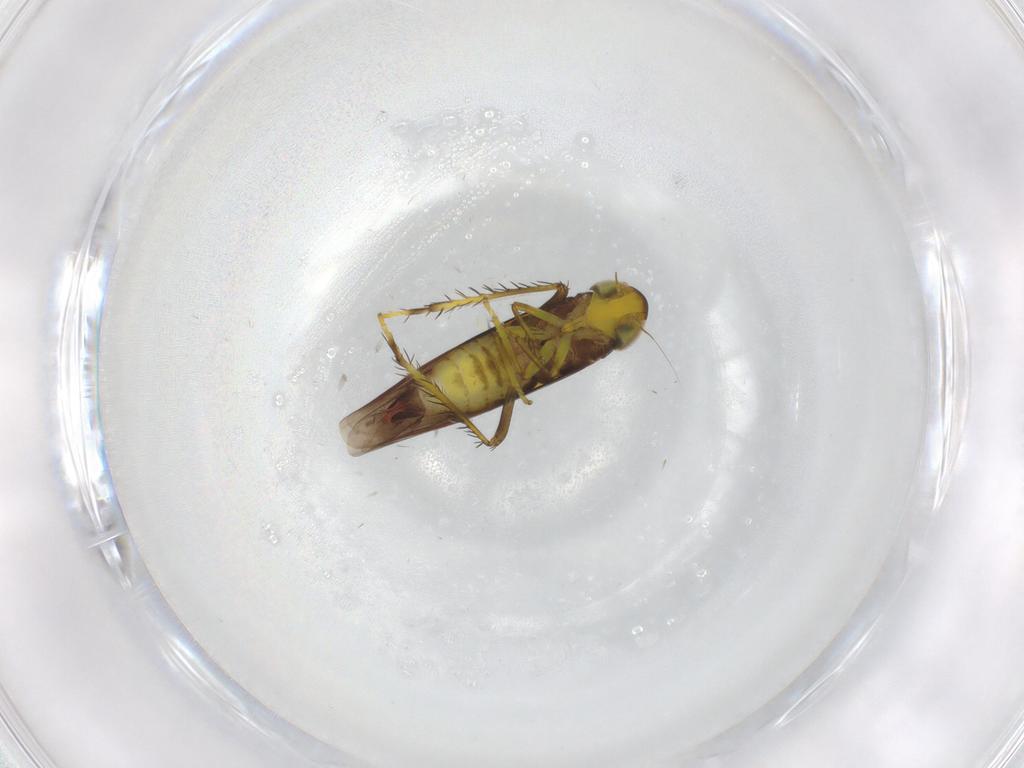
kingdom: Animalia
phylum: Arthropoda
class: Insecta
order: Hemiptera
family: Cicadellidae
